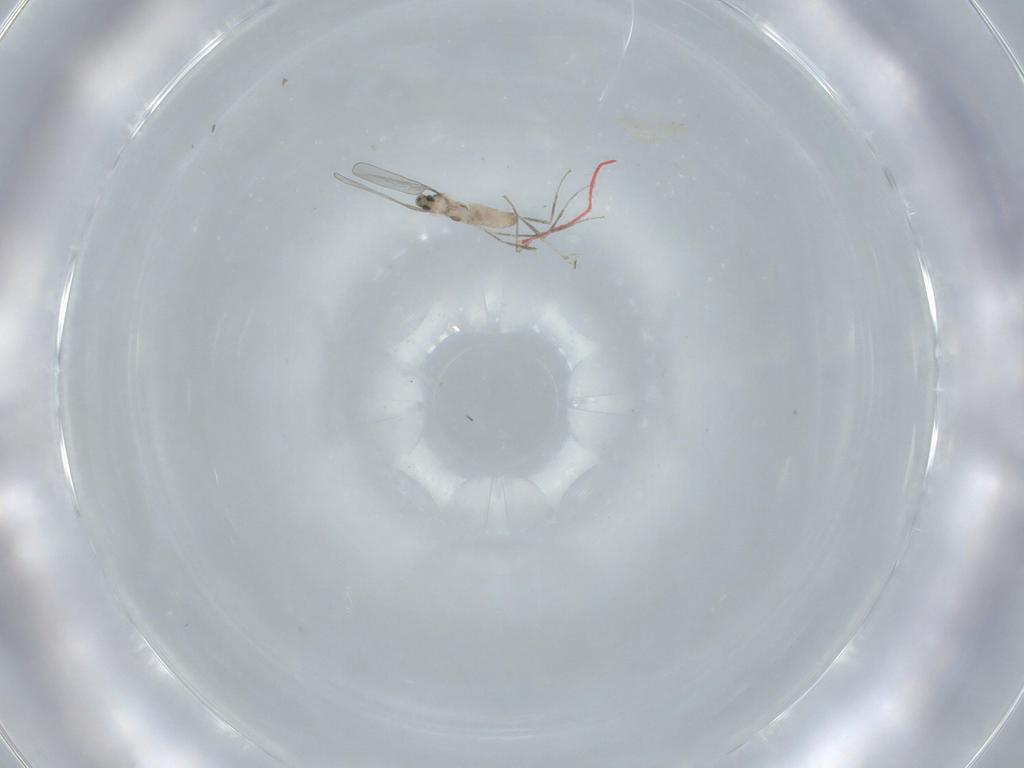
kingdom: Animalia
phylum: Arthropoda
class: Insecta
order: Diptera
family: Cecidomyiidae
